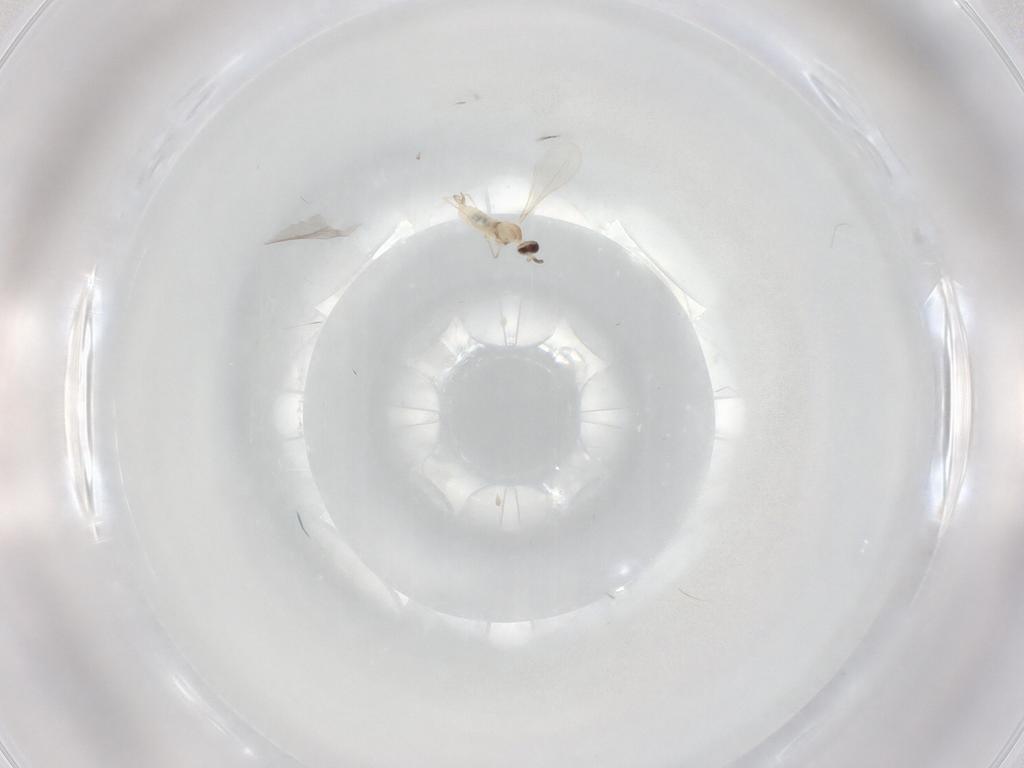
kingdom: Animalia
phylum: Arthropoda
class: Insecta
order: Diptera
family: Cecidomyiidae
